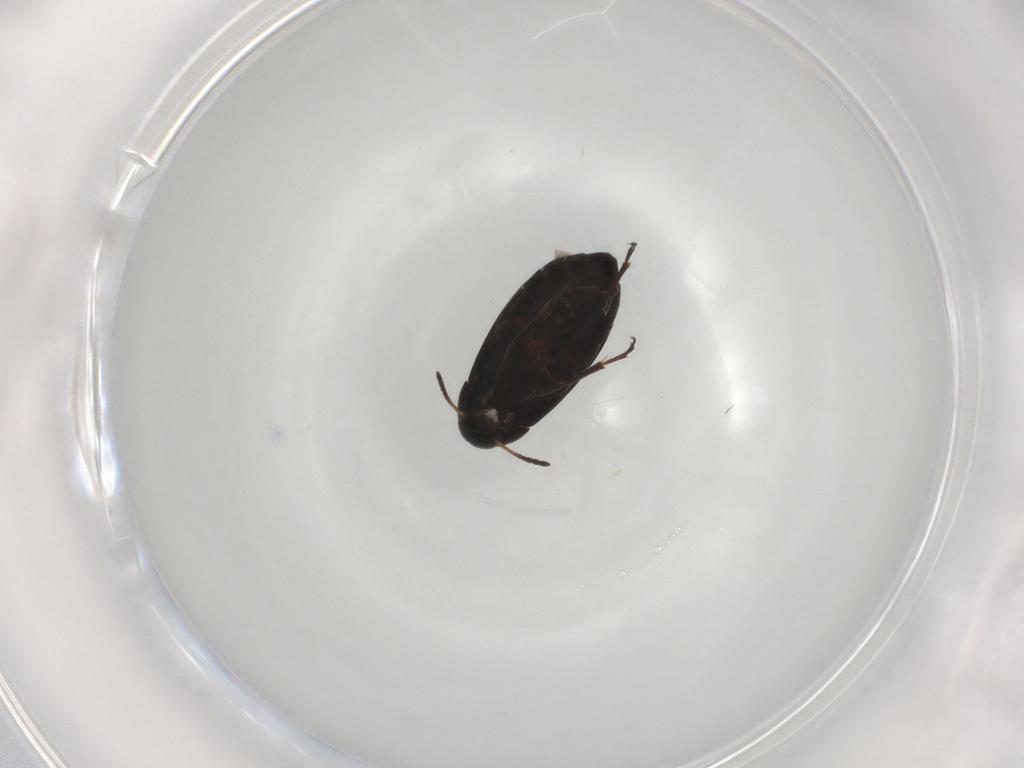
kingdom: Animalia
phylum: Arthropoda
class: Insecta
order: Coleoptera
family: Scraptiidae
